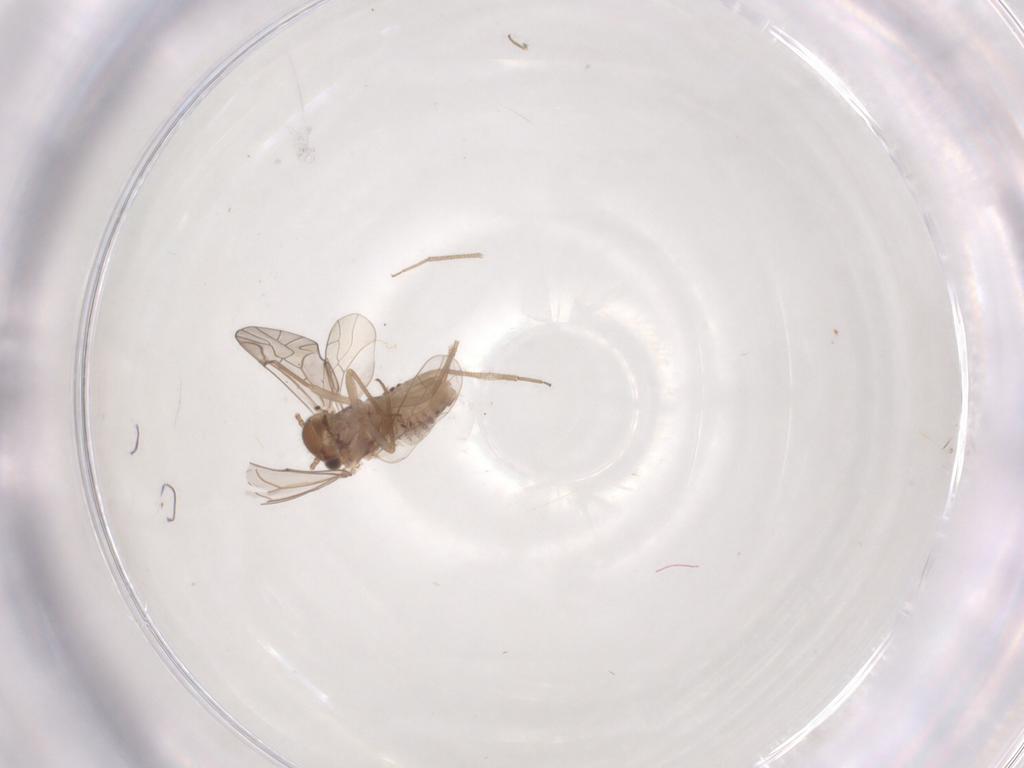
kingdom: Animalia
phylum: Arthropoda
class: Insecta
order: Psocodea
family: Lachesillidae
